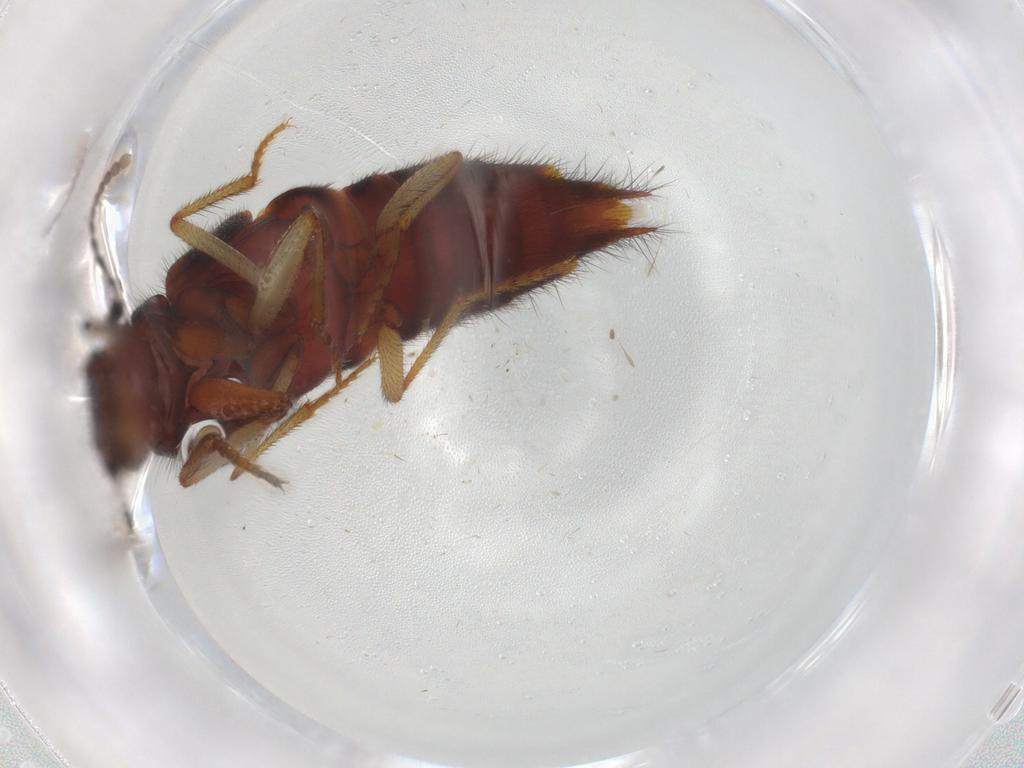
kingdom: Animalia
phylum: Arthropoda
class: Insecta
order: Coleoptera
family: Staphylinidae
